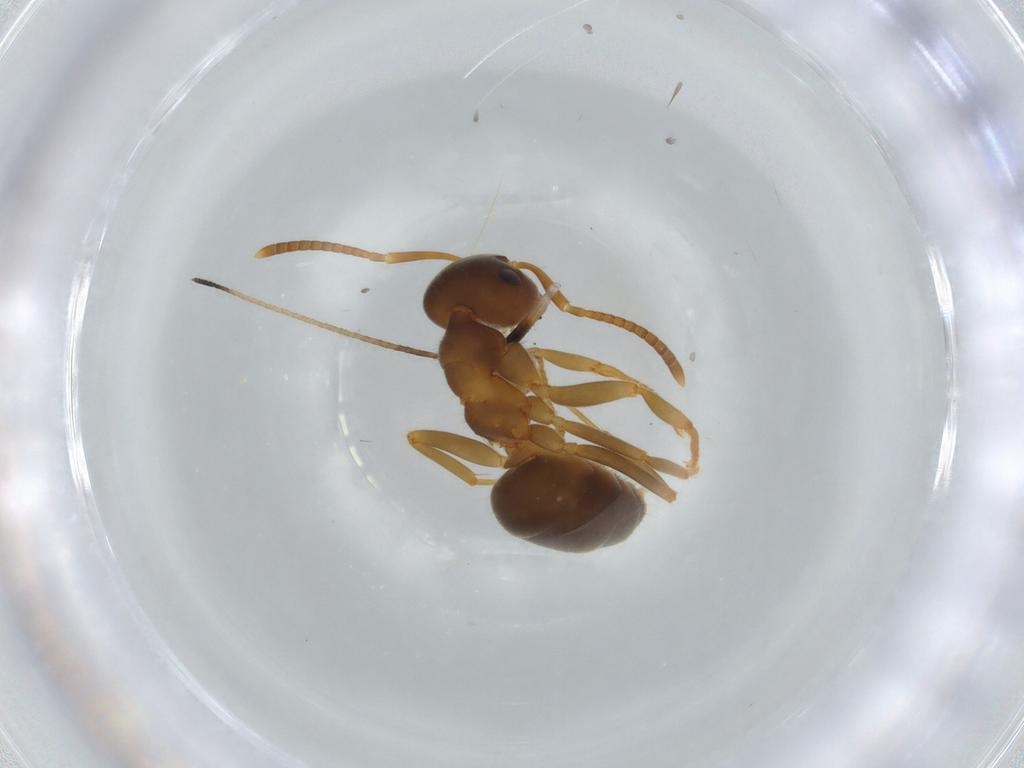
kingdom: Animalia
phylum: Arthropoda
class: Insecta
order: Hymenoptera
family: Formicidae
